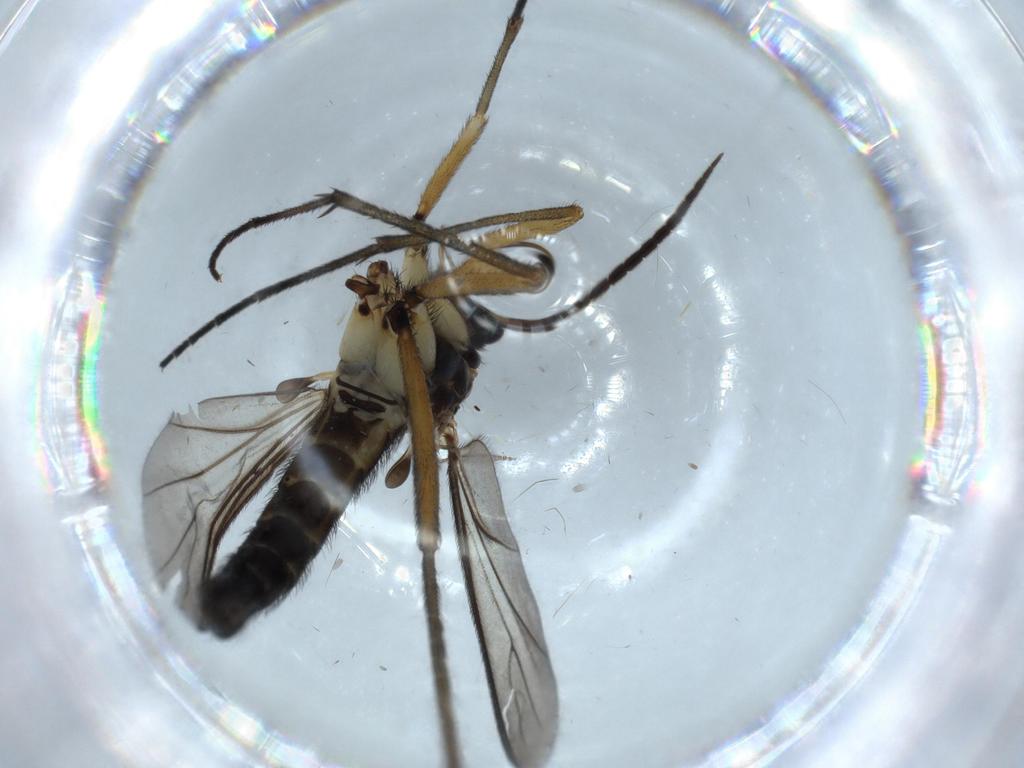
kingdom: Animalia
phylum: Arthropoda
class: Insecta
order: Diptera
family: Sciaridae
